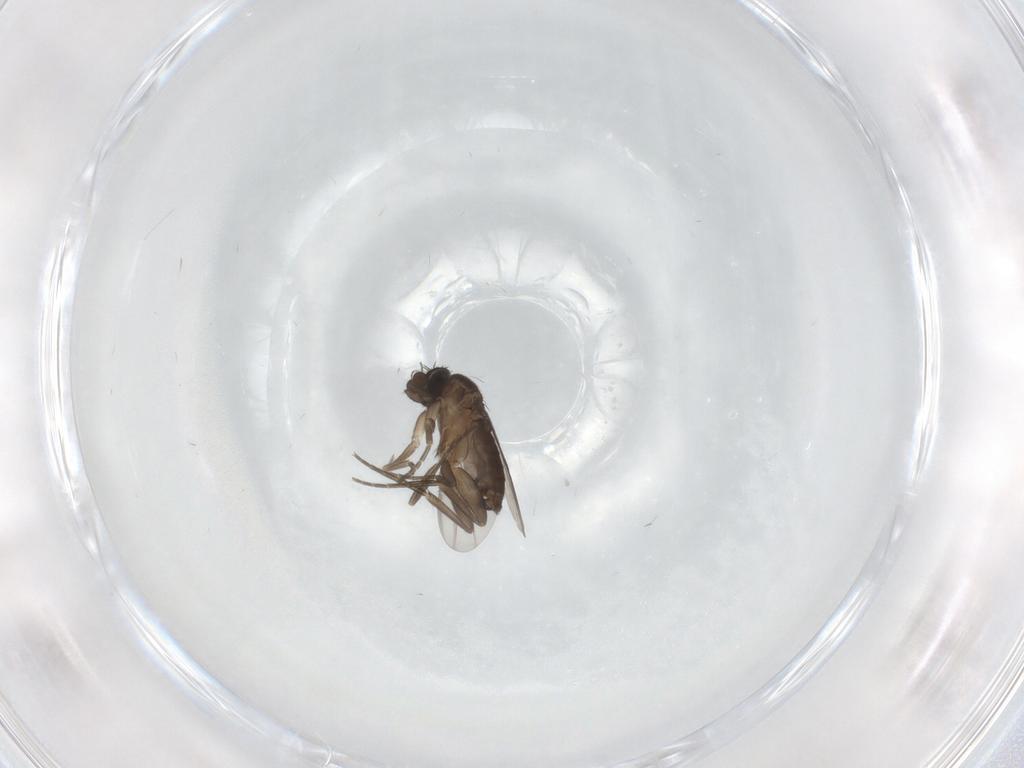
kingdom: Animalia
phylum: Arthropoda
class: Insecta
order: Diptera
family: Phoridae
